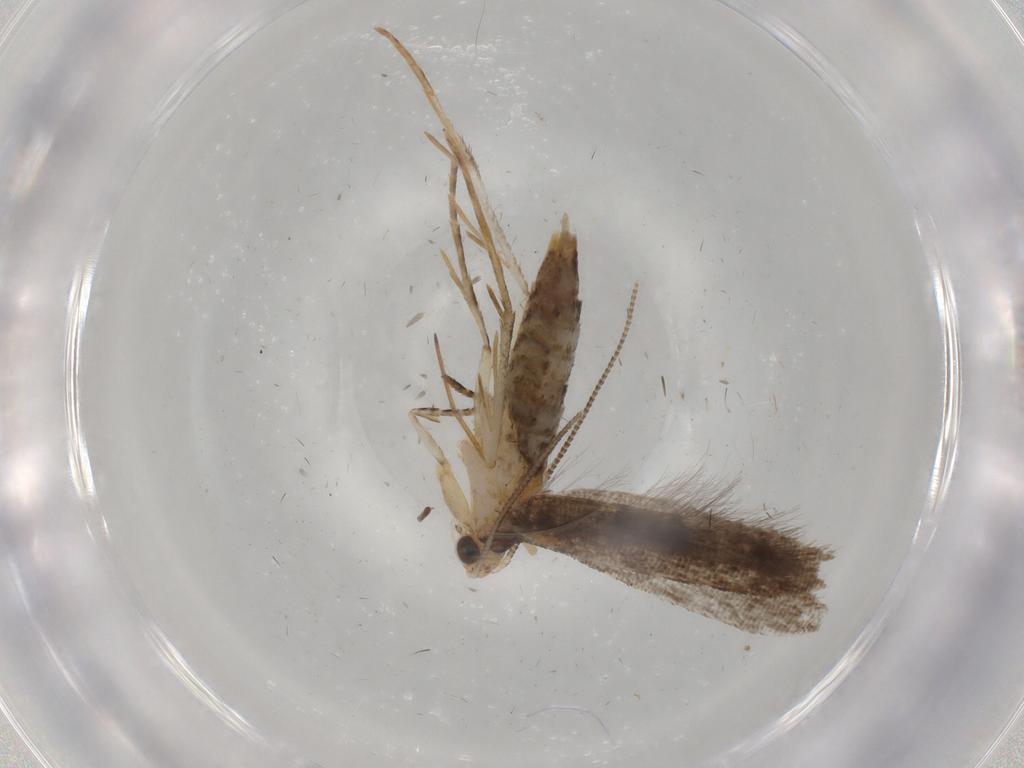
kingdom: Animalia
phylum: Arthropoda
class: Insecta
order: Lepidoptera
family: Tineidae
